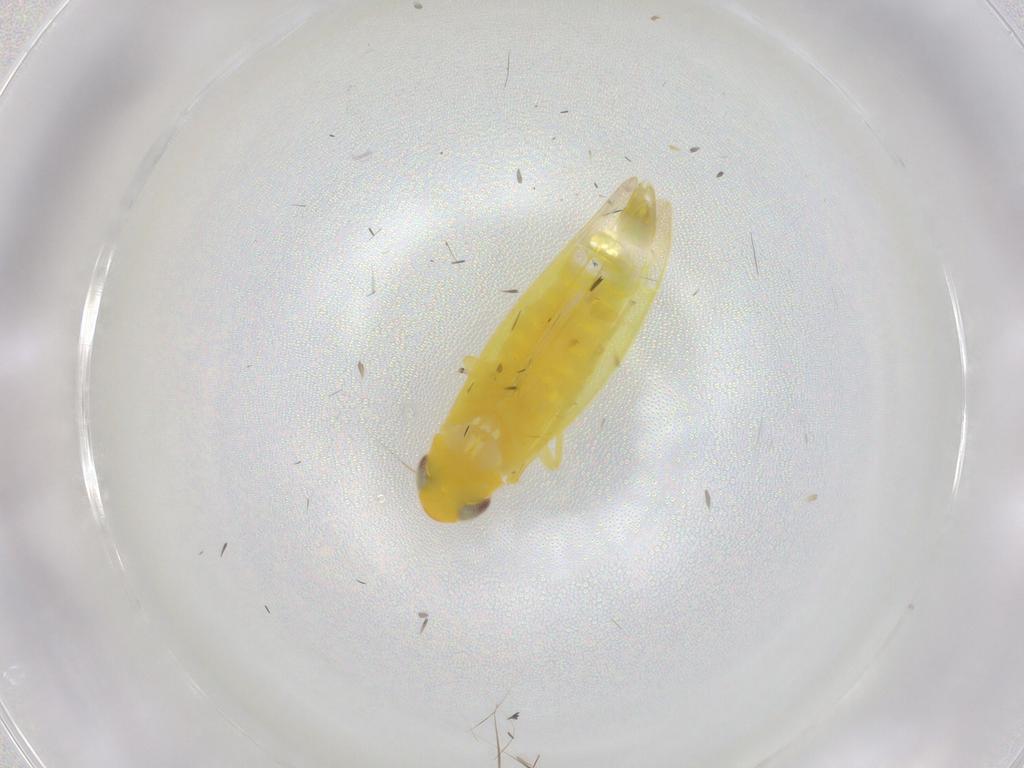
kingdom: Animalia
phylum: Arthropoda
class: Insecta
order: Hemiptera
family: Cicadellidae
